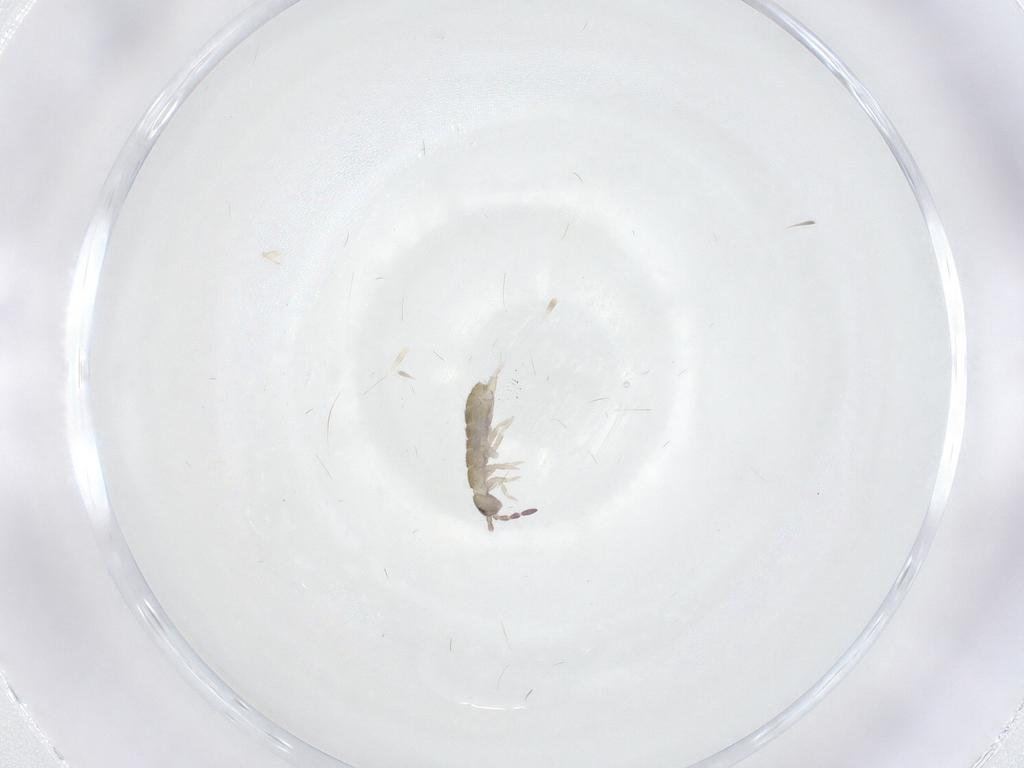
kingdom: Animalia
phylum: Arthropoda
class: Collembola
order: Entomobryomorpha
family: Entomobryidae
